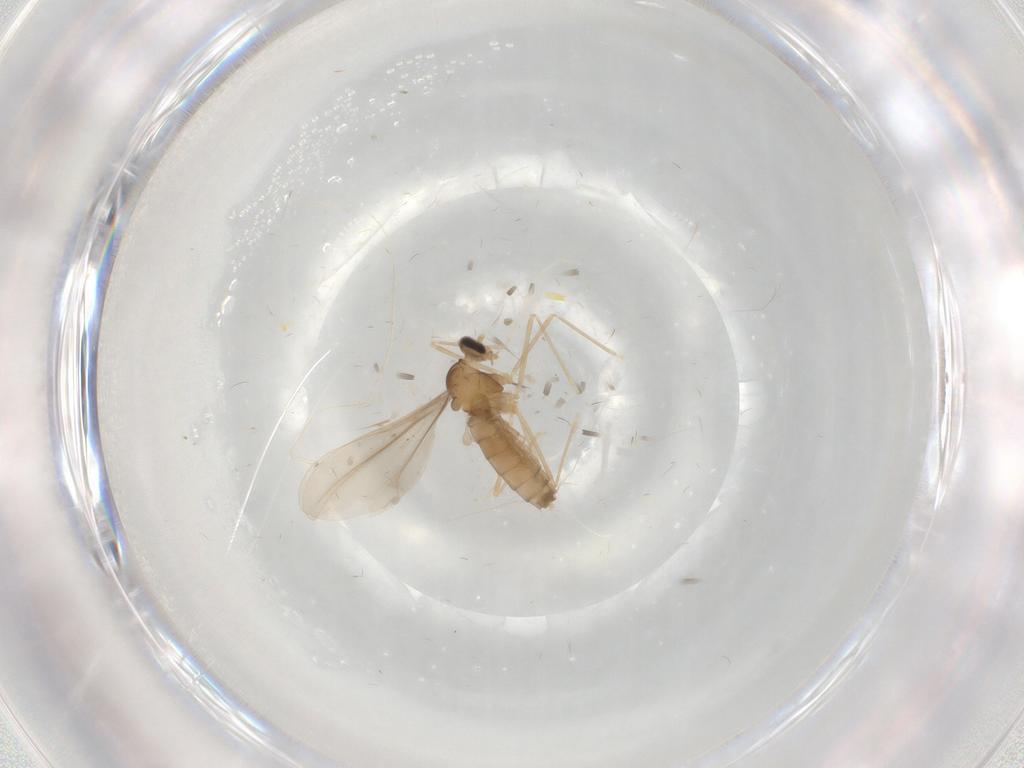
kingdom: Animalia
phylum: Arthropoda
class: Insecta
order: Diptera
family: Cecidomyiidae
